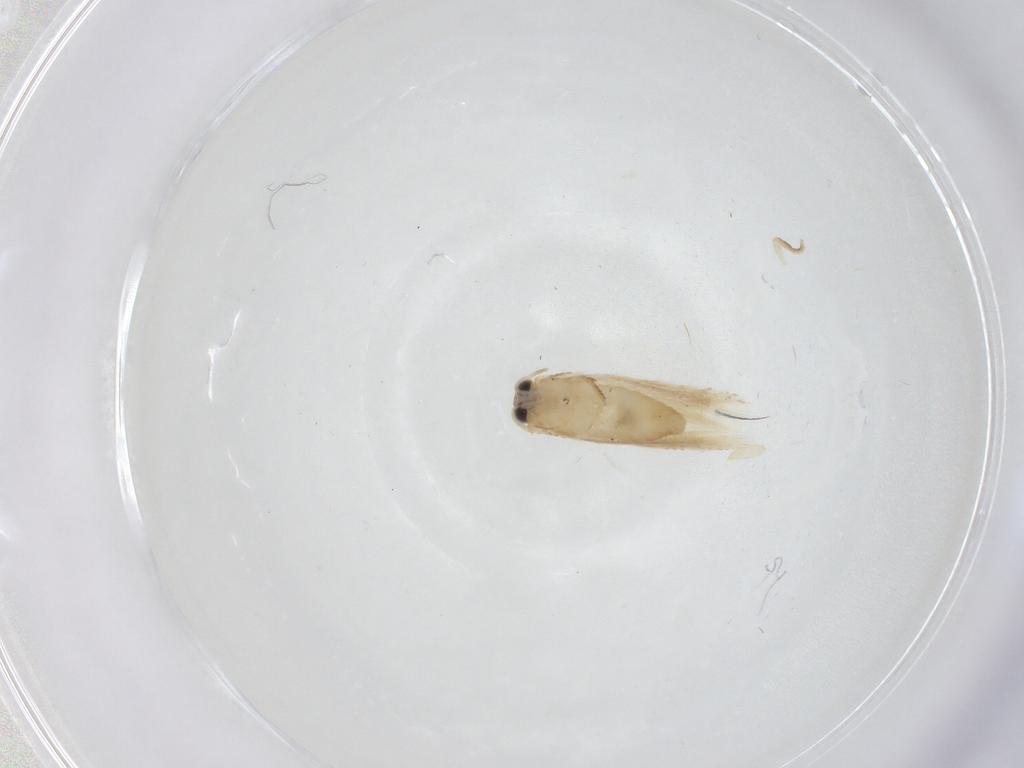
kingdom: Animalia
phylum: Arthropoda
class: Insecta
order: Lepidoptera
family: Nepticulidae
